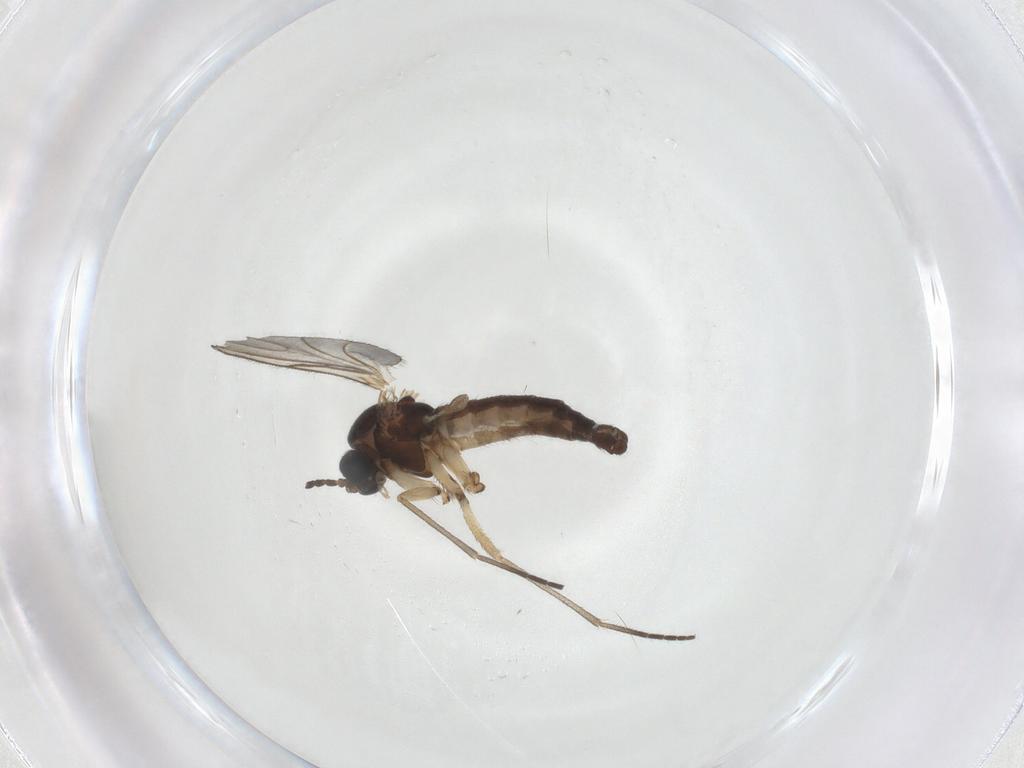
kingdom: Animalia
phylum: Arthropoda
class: Insecta
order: Diptera
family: Sciaridae
